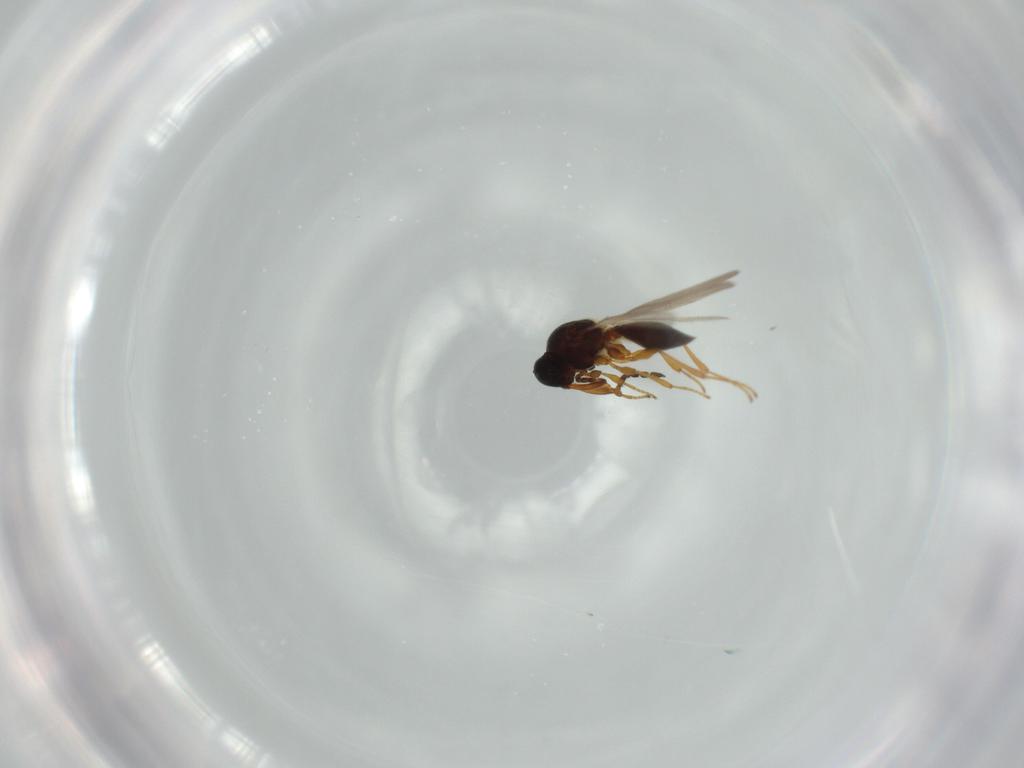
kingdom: Animalia
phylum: Arthropoda
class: Insecta
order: Hymenoptera
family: Platygastridae
